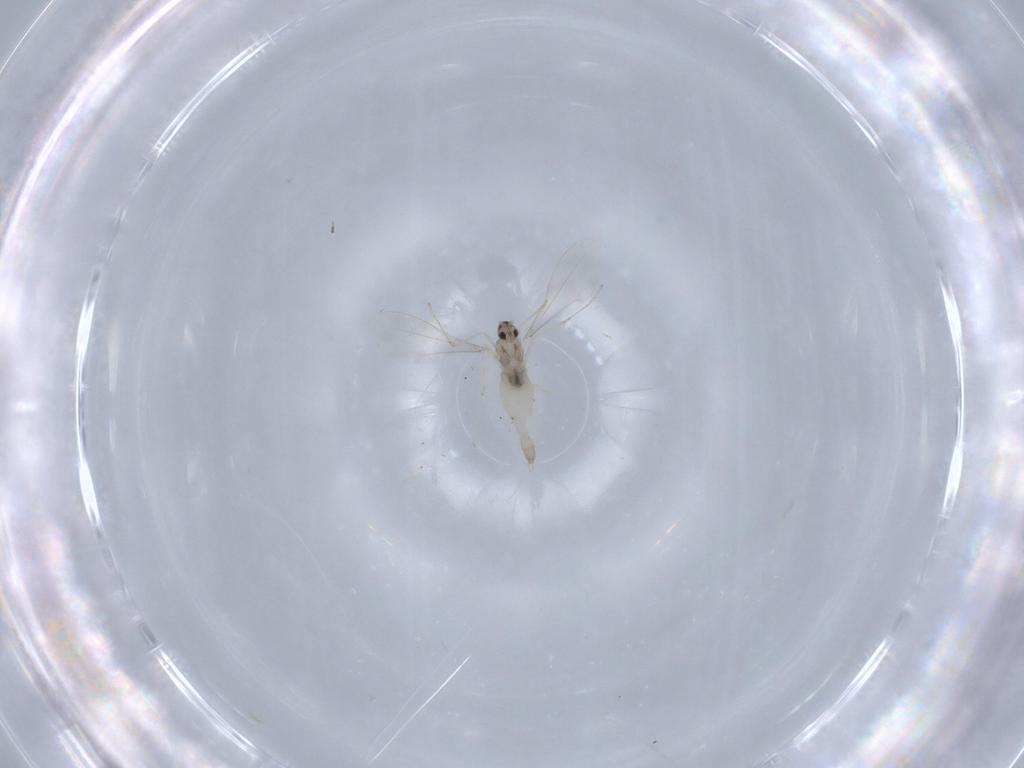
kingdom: Animalia
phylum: Arthropoda
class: Insecta
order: Diptera
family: Cecidomyiidae
